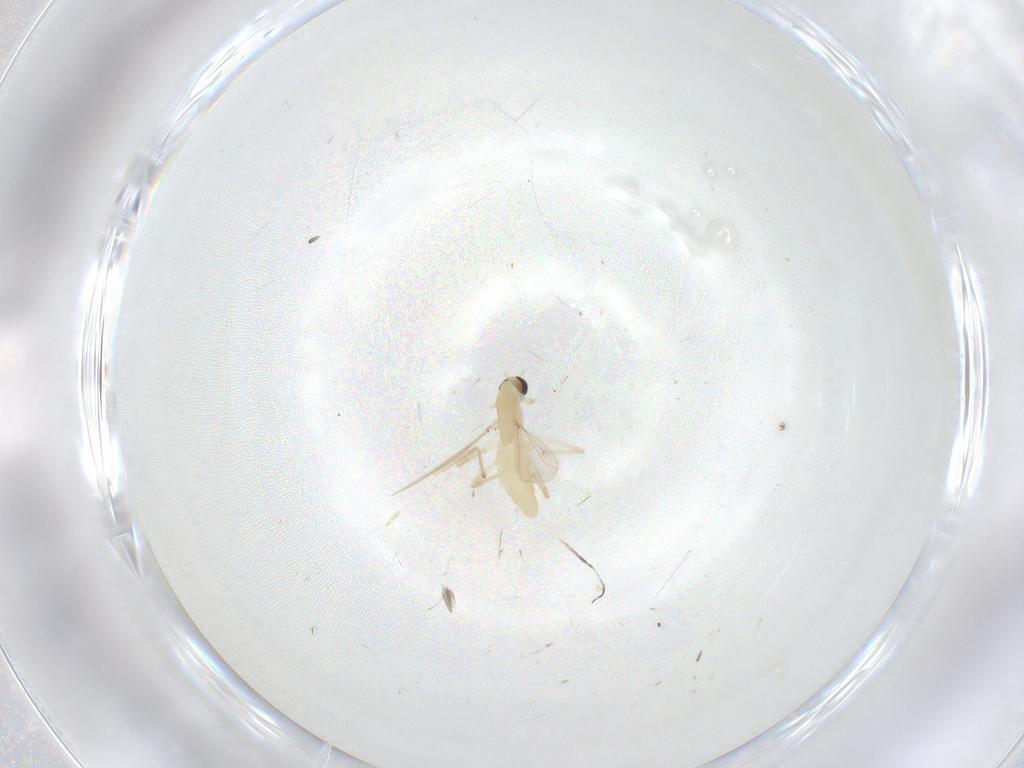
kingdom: Animalia
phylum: Arthropoda
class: Insecta
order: Diptera
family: Chironomidae
